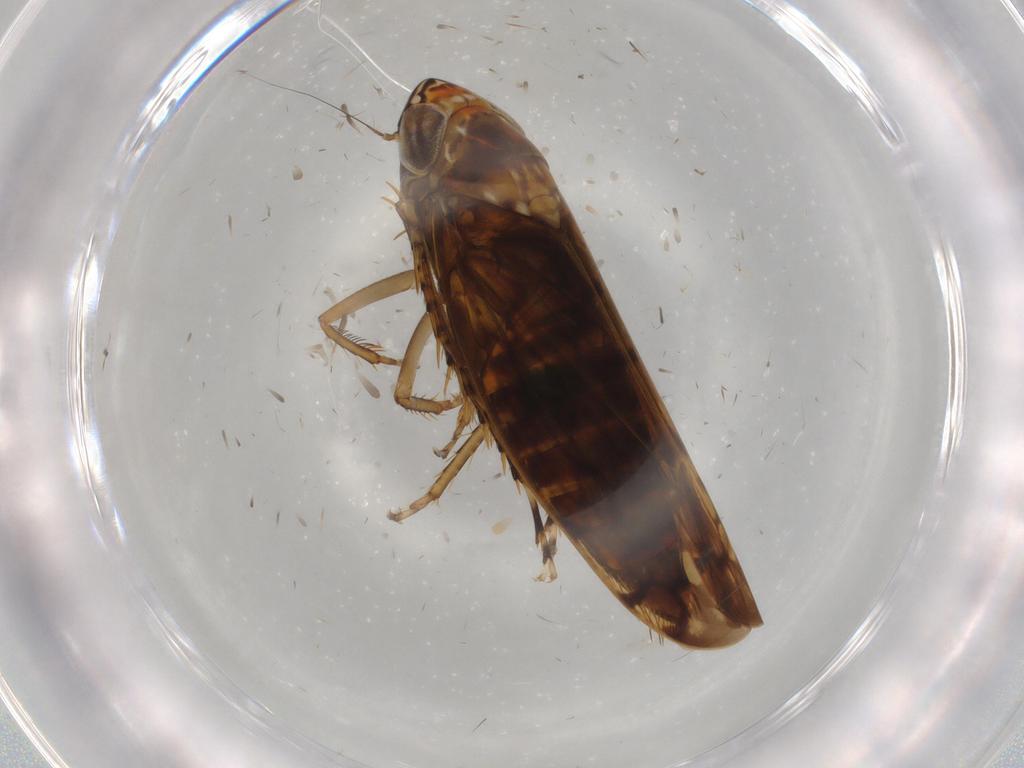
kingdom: Animalia
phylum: Arthropoda
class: Insecta
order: Hemiptera
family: Cicadellidae
